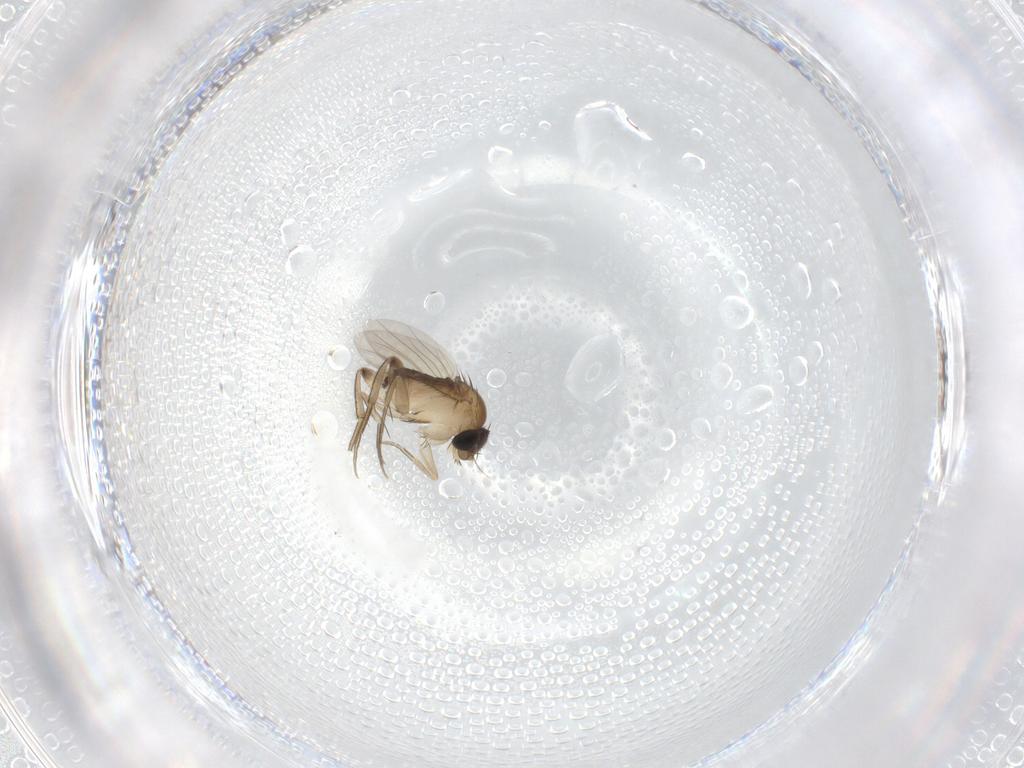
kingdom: Animalia
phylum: Arthropoda
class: Insecta
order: Diptera
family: Phoridae
